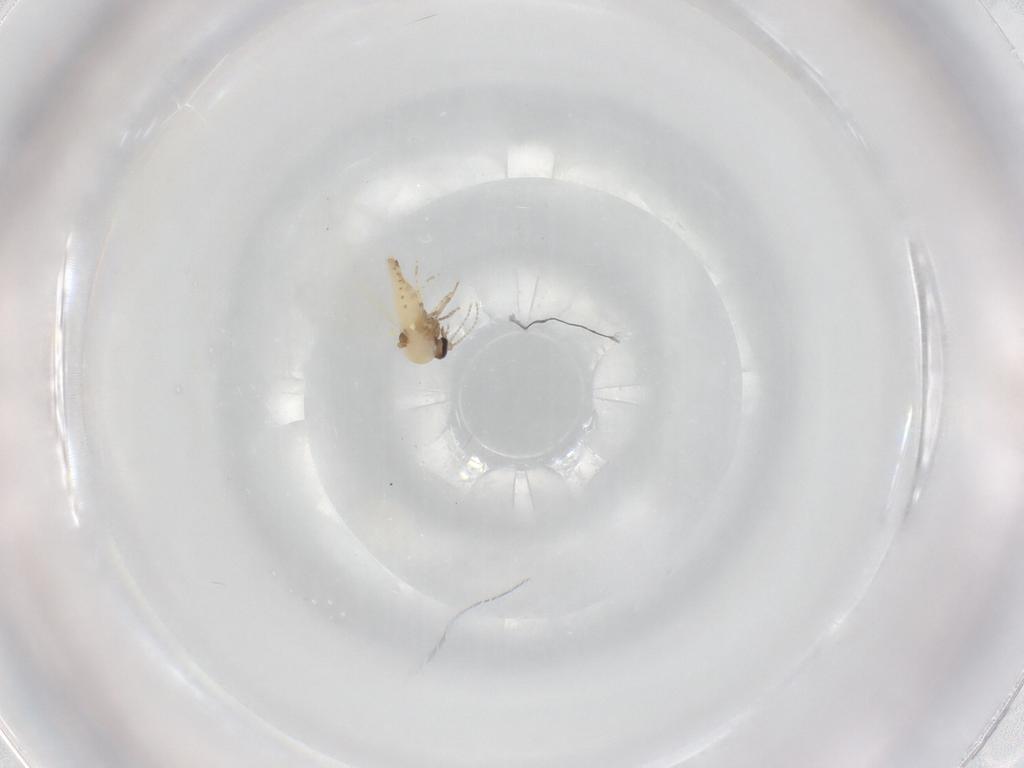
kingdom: Animalia
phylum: Arthropoda
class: Insecta
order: Diptera
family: Ceratopogonidae
